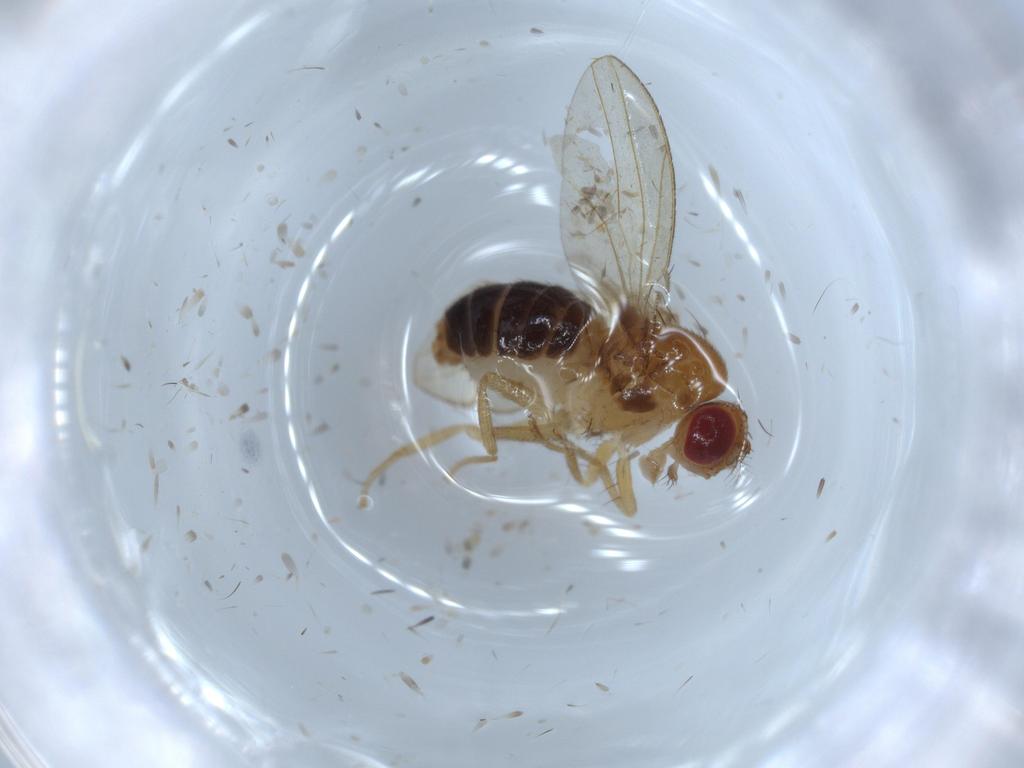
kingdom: Animalia
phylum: Arthropoda
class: Insecta
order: Diptera
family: Drosophilidae
